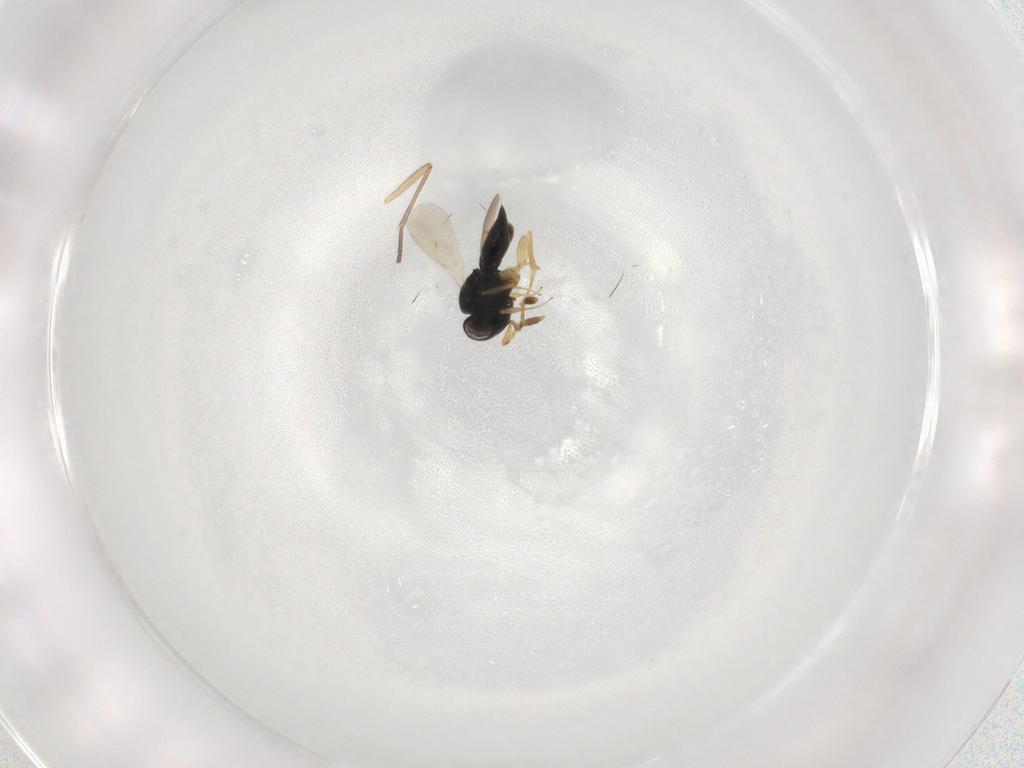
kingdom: Animalia
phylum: Arthropoda
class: Insecta
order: Hymenoptera
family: Scelionidae
